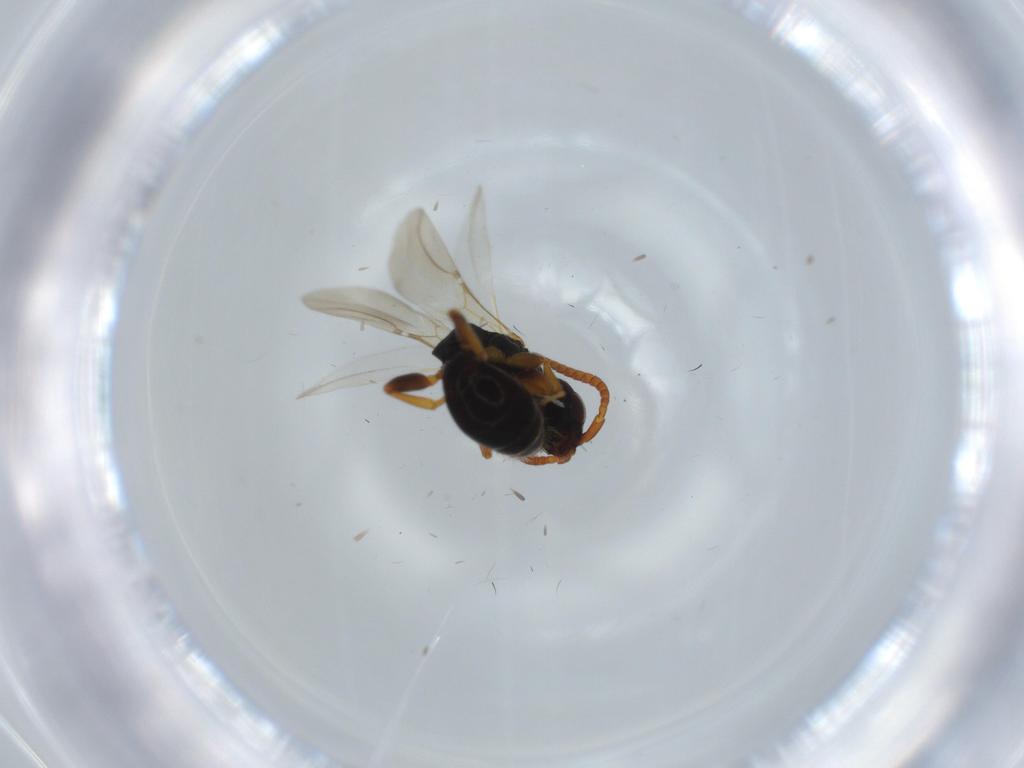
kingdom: Animalia
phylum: Arthropoda
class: Insecta
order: Hymenoptera
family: Bethylidae
